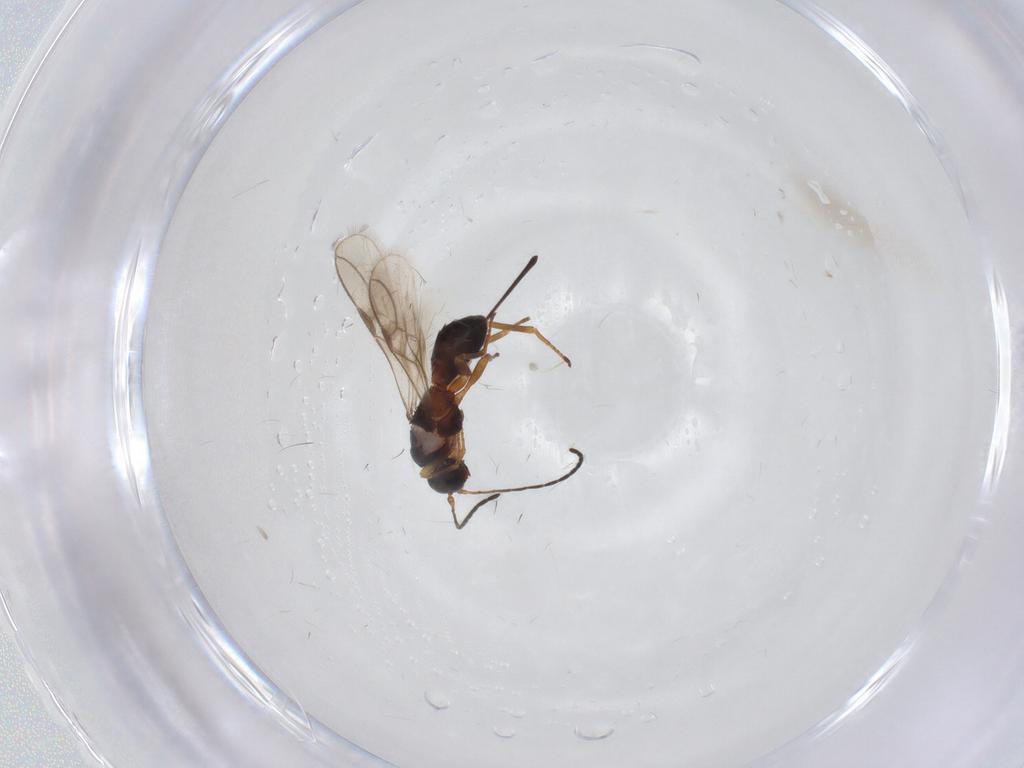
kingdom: Animalia
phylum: Arthropoda
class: Insecta
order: Hymenoptera
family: Braconidae
